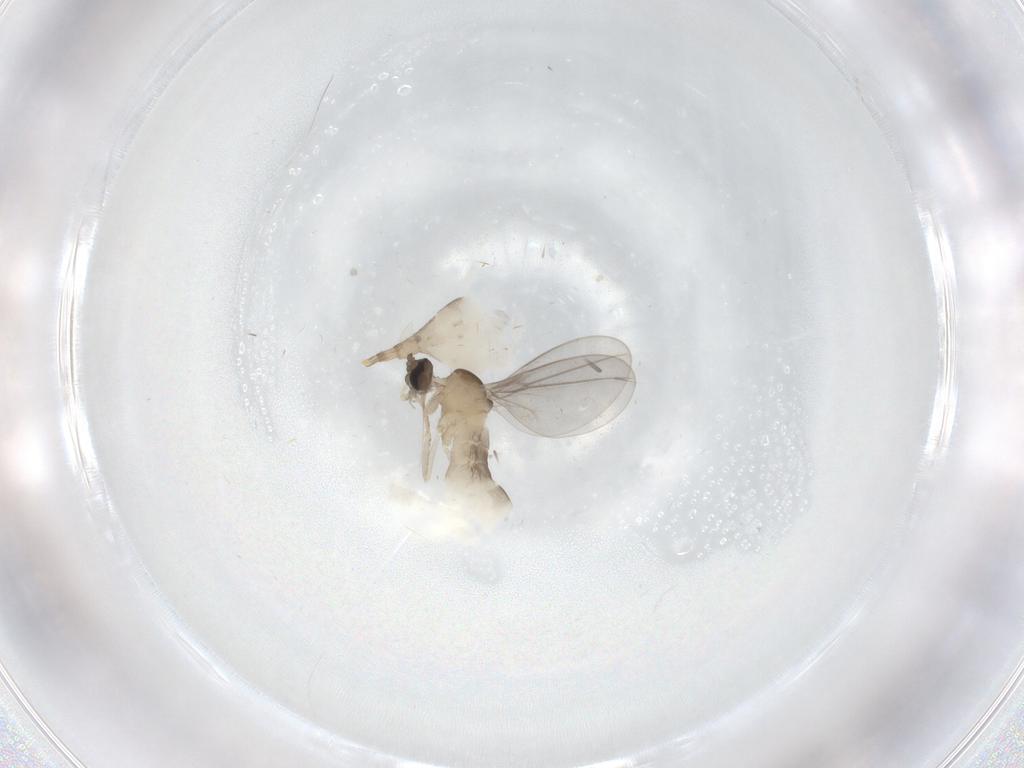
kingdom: Animalia
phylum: Arthropoda
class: Insecta
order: Diptera
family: Cecidomyiidae
